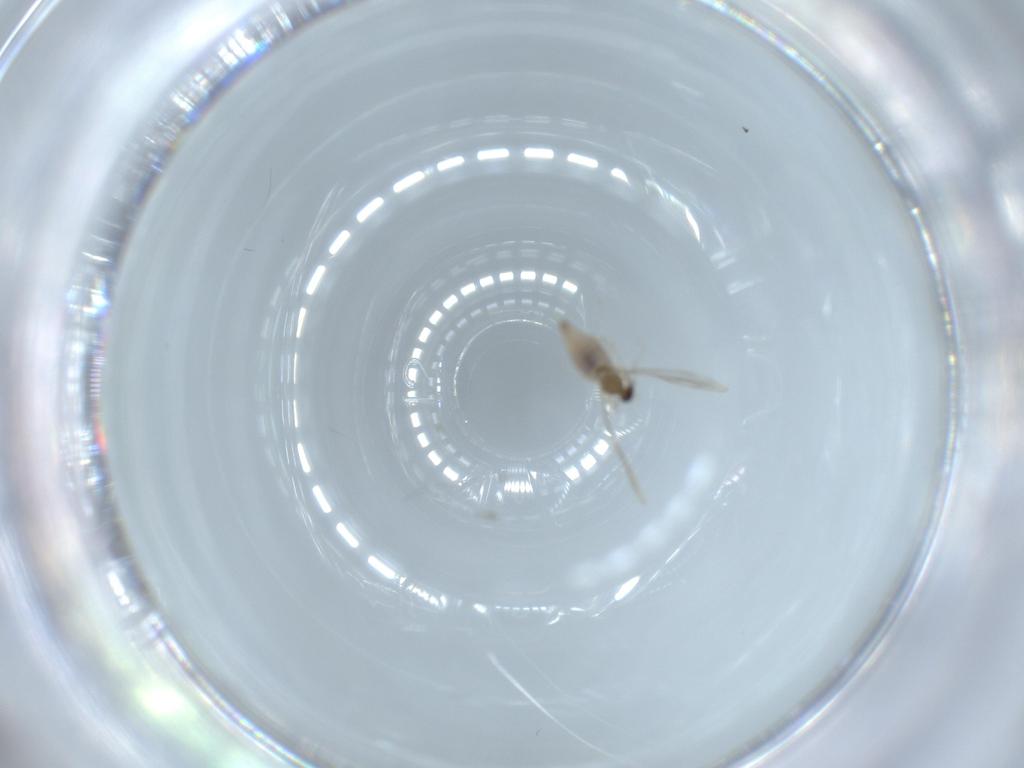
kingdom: Animalia
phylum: Arthropoda
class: Insecta
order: Diptera
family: Cecidomyiidae
